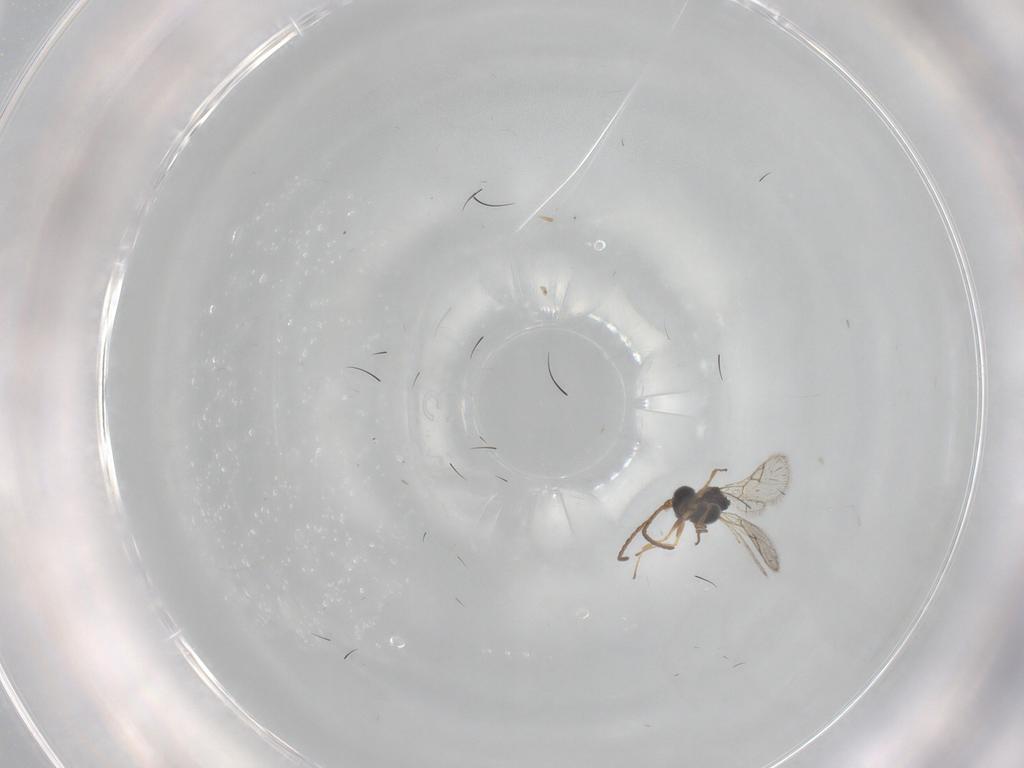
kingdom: Animalia
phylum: Arthropoda
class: Insecta
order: Hymenoptera
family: Figitidae
